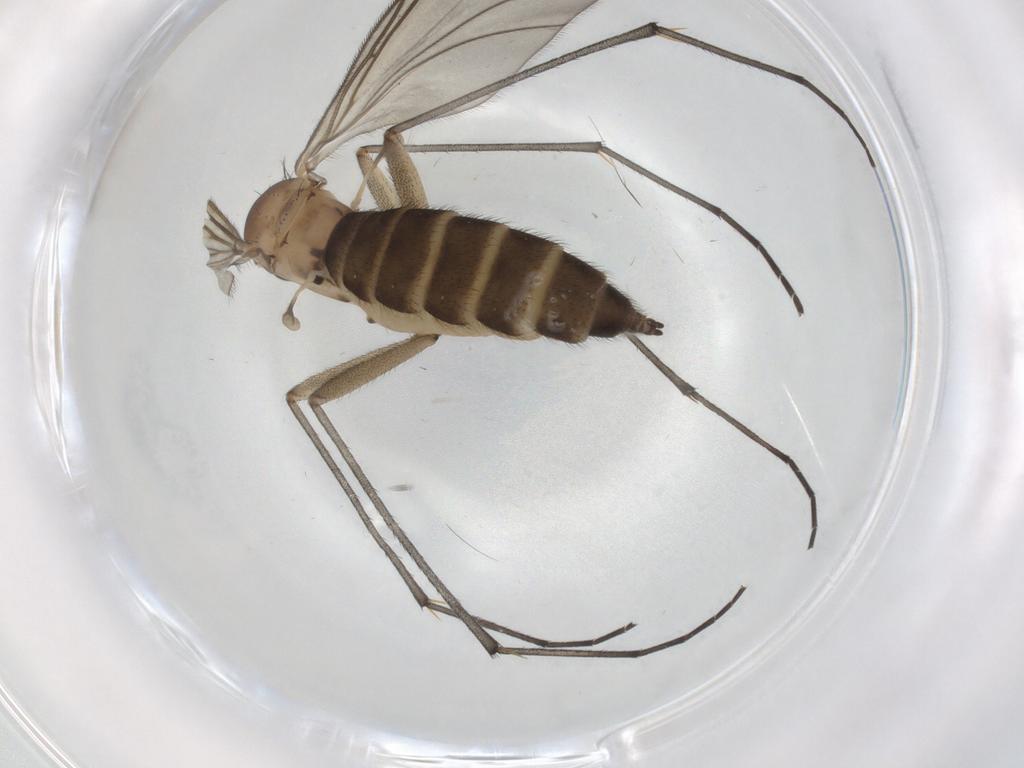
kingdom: Animalia
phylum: Arthropoda
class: Insecta
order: Diptera
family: Sciaridae
